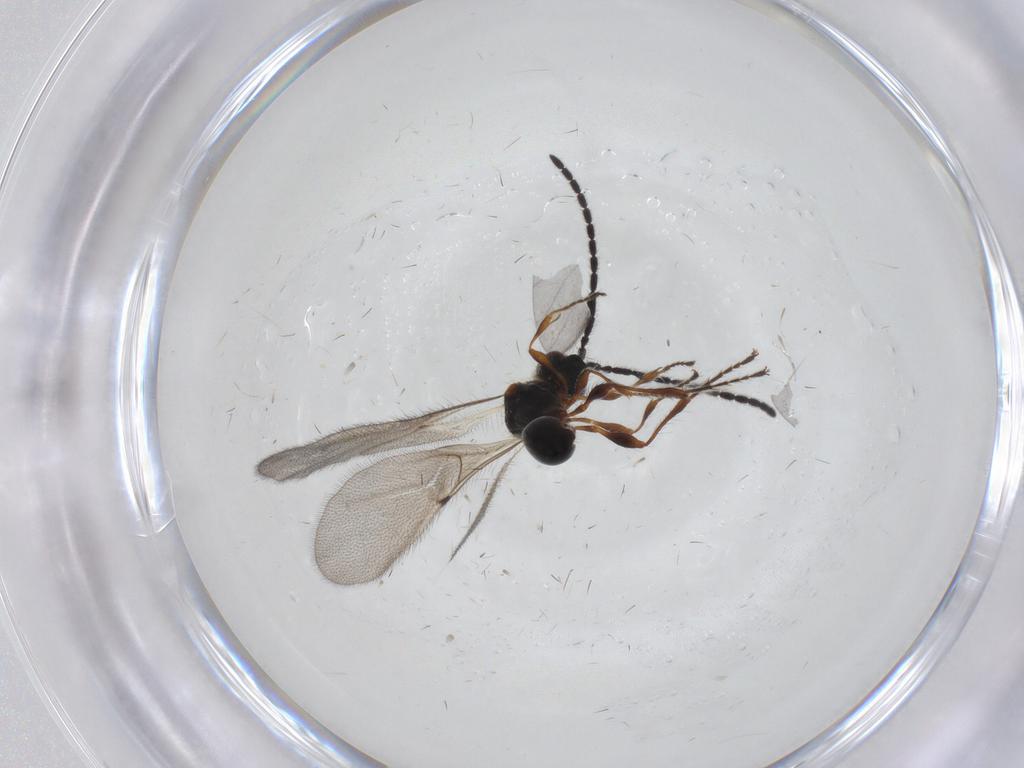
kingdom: Animalia
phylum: Arthropoda
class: Insecta
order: Hymenoptera
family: Diapriidae
